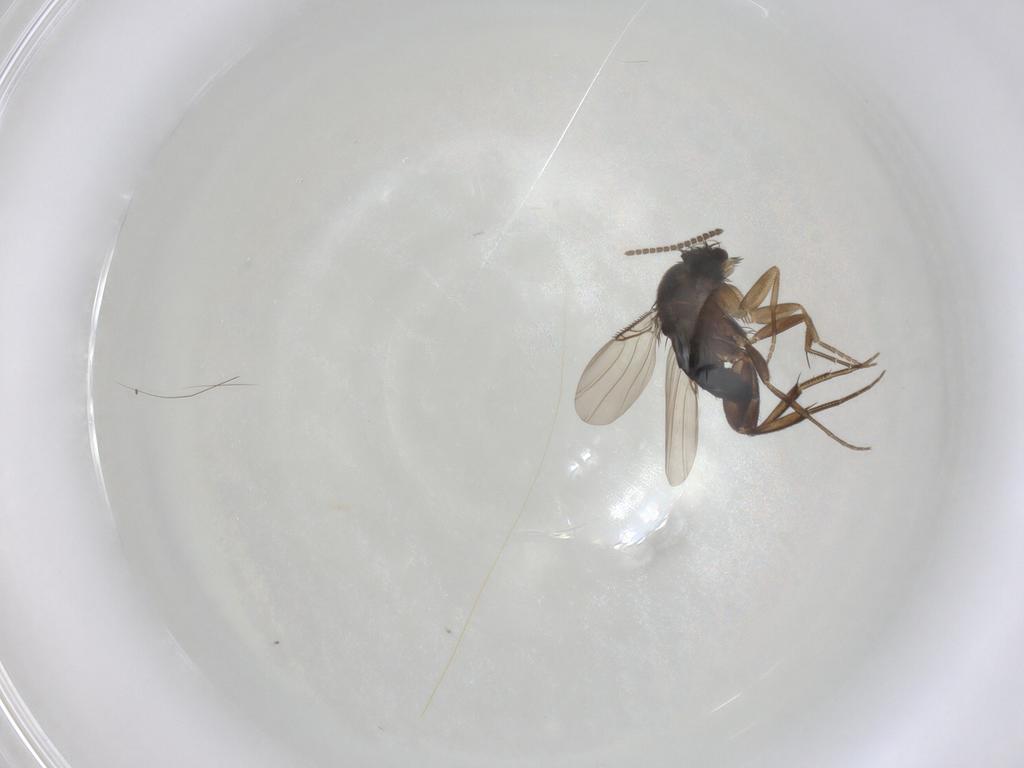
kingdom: Animalia
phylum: Arthropoda
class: Insecta
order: Diptera
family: Sciaridae
